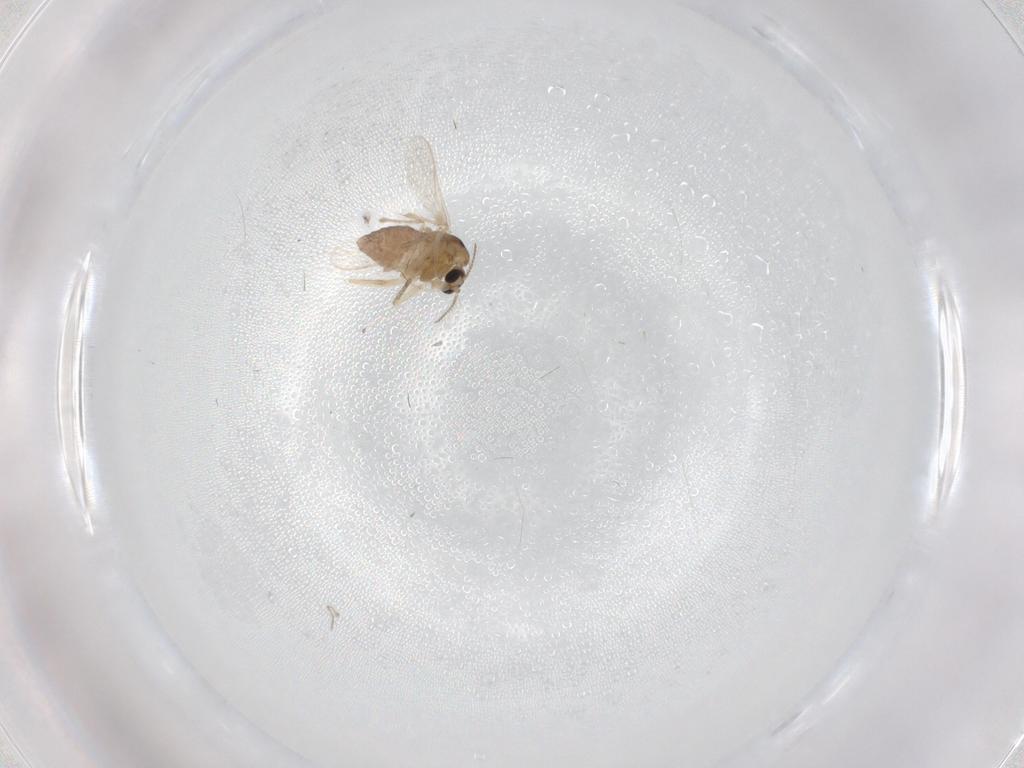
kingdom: Animalia
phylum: Arthropoda
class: Insecta
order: Diptera
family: Chironomidae
